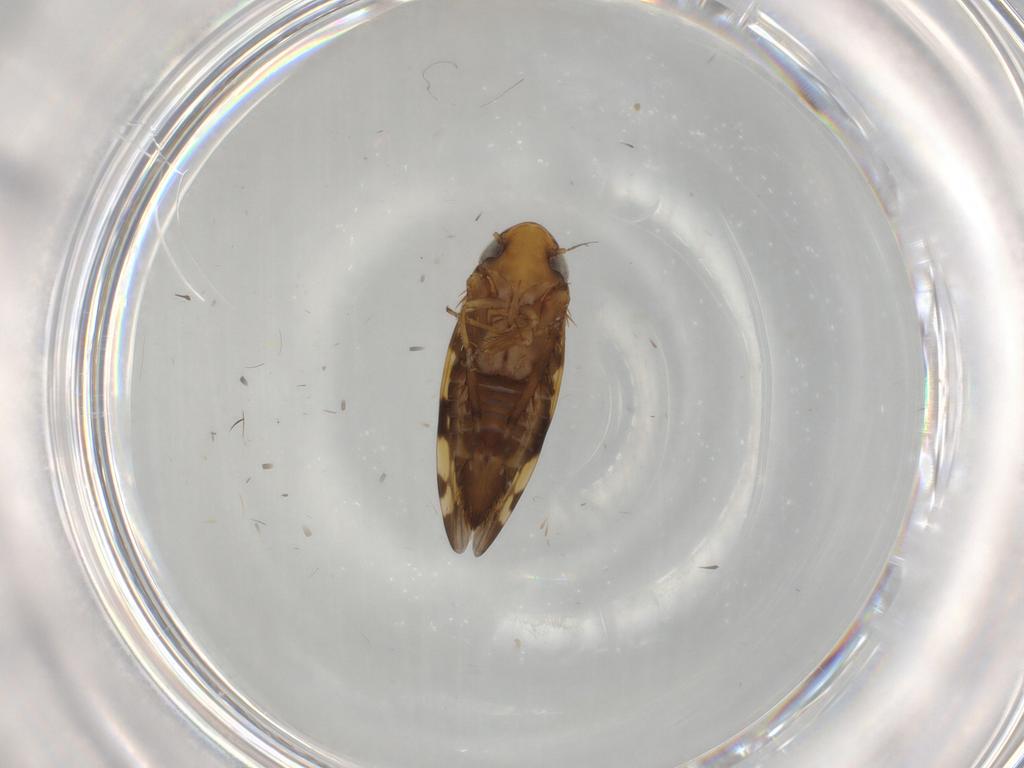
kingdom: Animalia
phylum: Arthropoda
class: Insecta
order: Hemiptera
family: Cicadellidae
